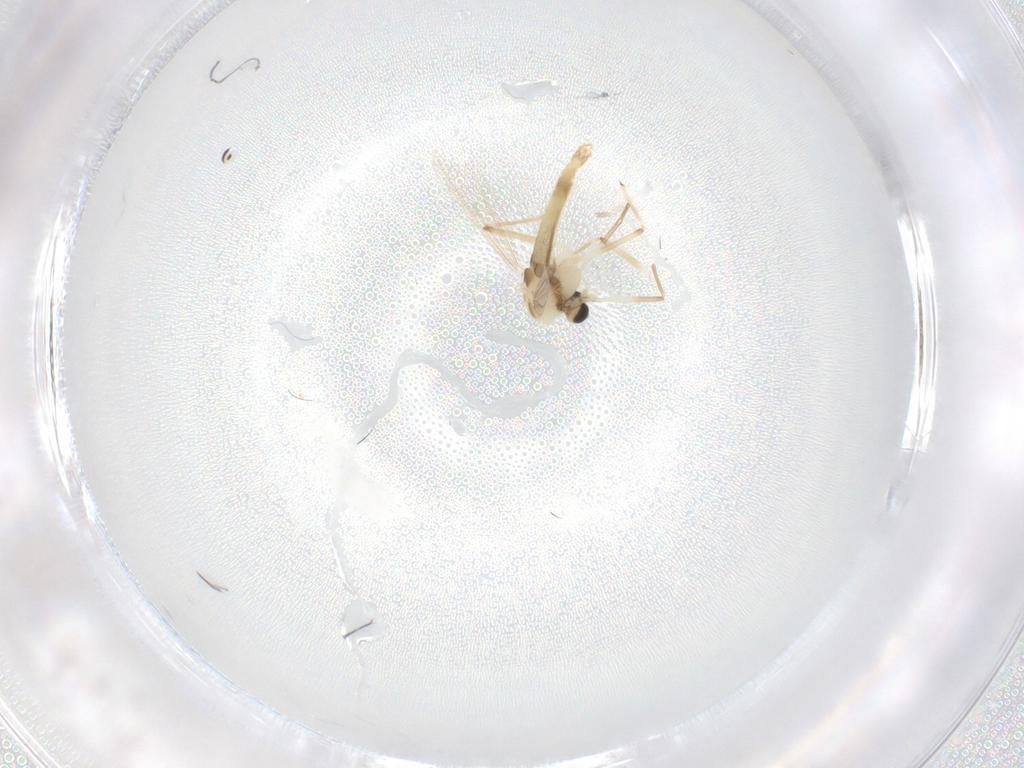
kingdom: Animalia
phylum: Arthropoda
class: Insecta
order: Diptera
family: Chironomidae
